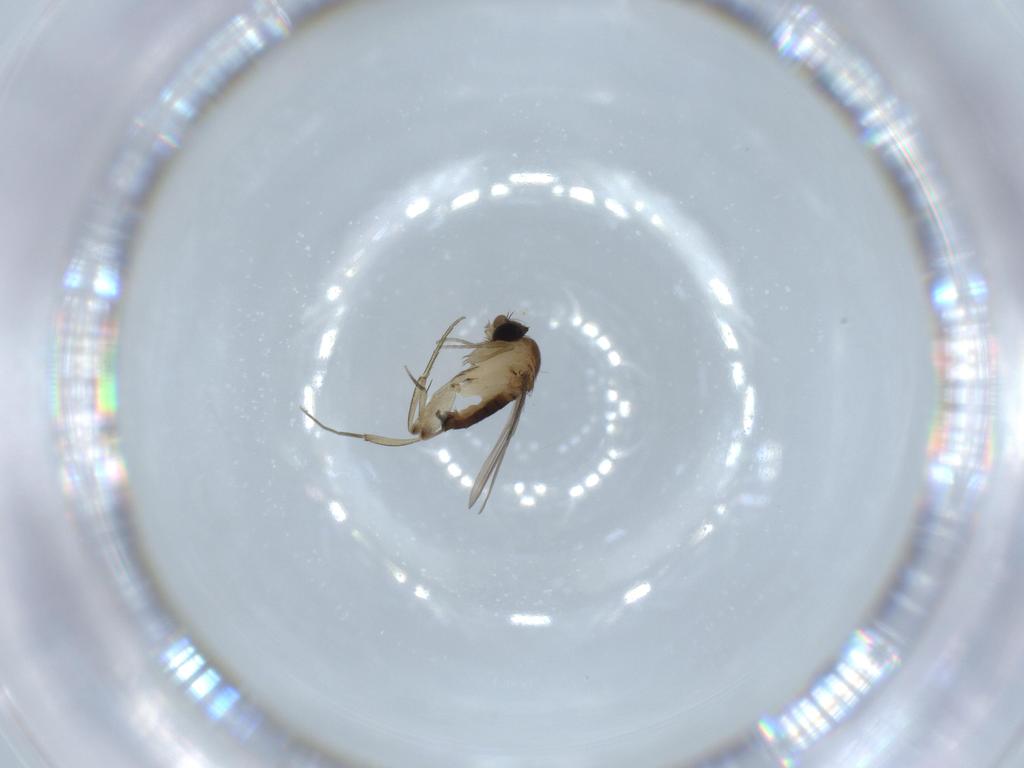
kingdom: Animalia
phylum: Arthropoda
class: Insecta
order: Diptera
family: Phoridae
